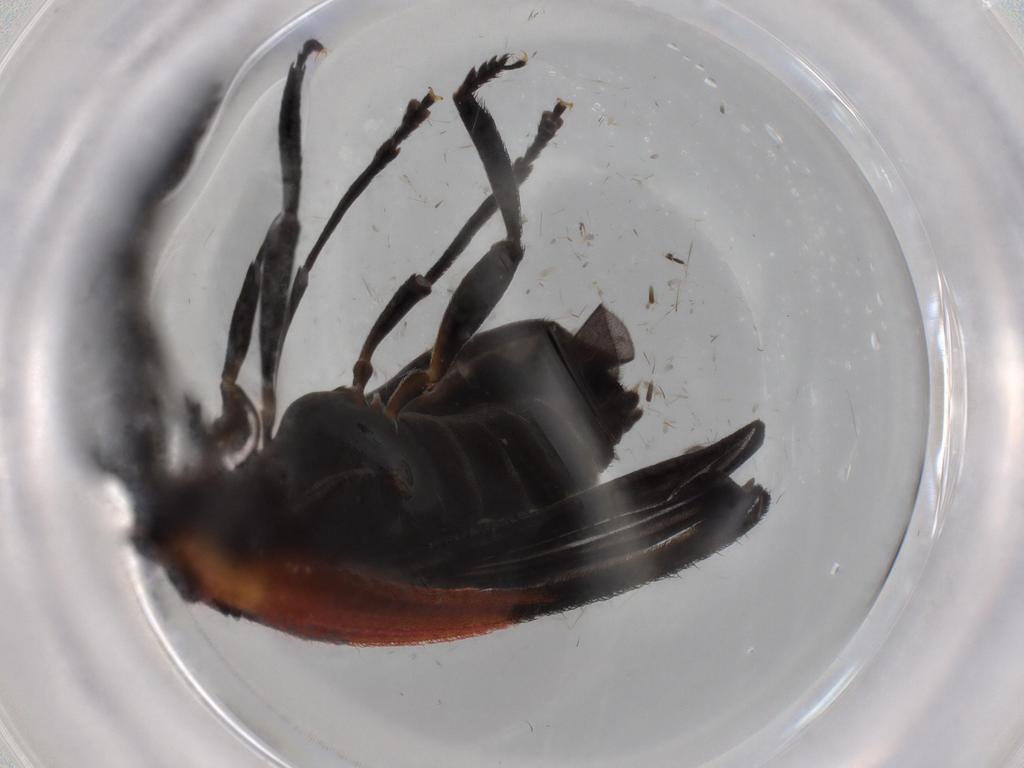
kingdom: Animalia
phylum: Arthropoda
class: Insecta
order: Coleoptera
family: Lycidae
